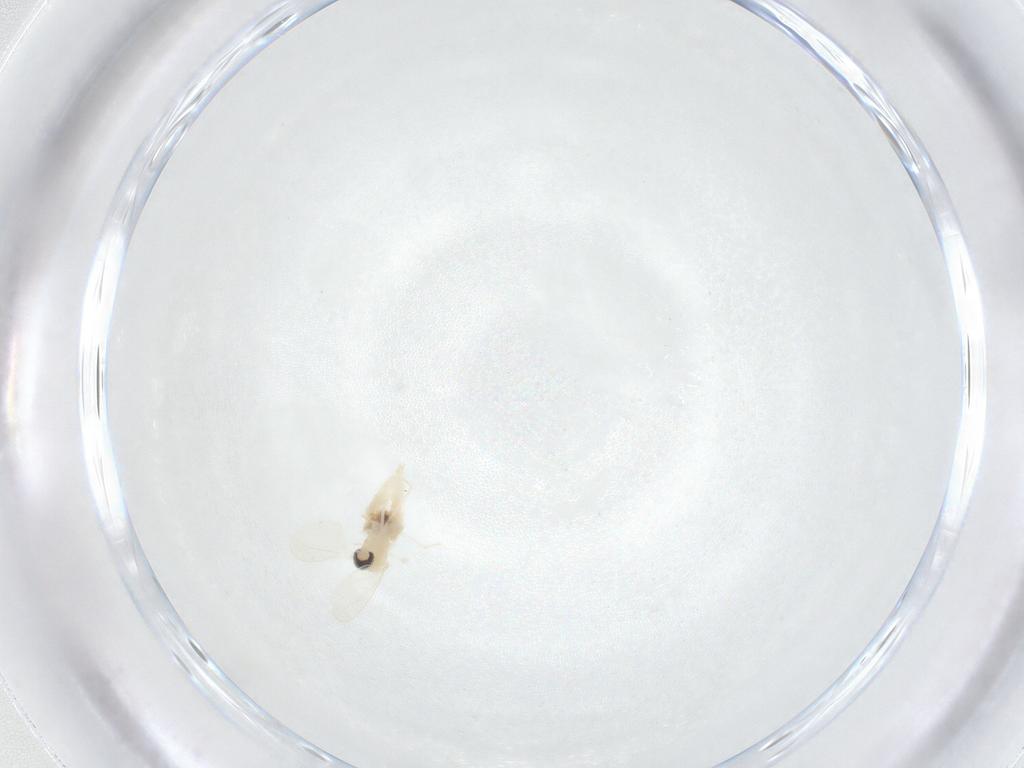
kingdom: Animalia
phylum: Arthropoda
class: Insecta
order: Diptera
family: Cecidomyiidae
